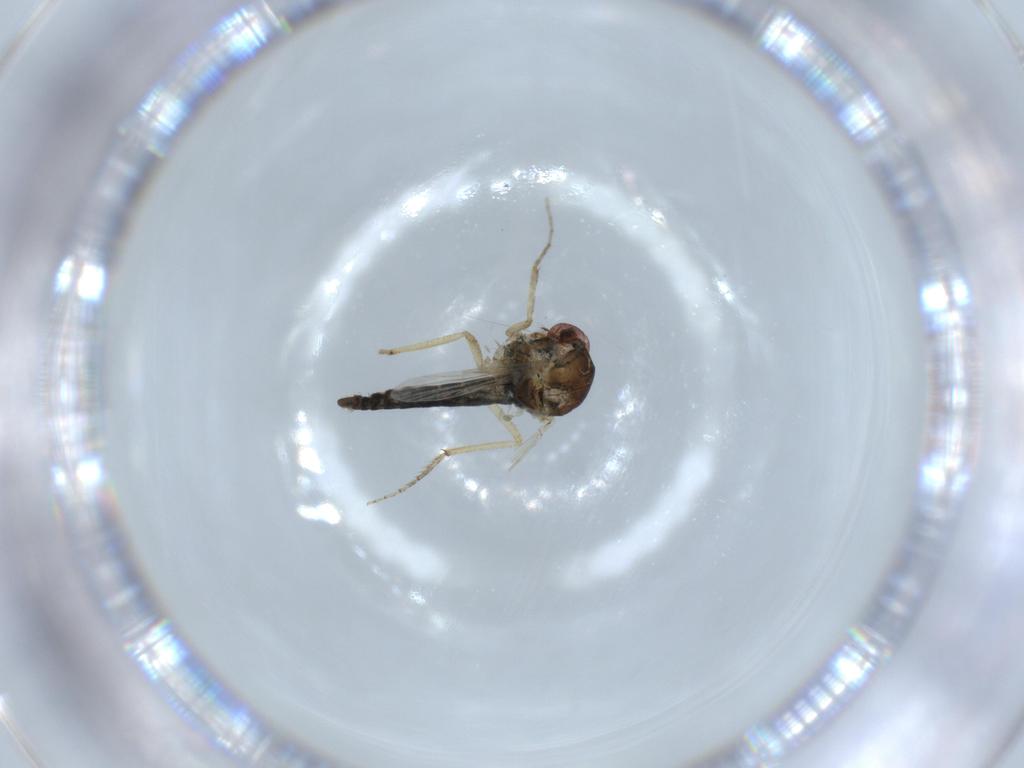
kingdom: Animalia
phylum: Arthropoda
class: Insecta
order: Diptera
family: Ceratopogonidae
